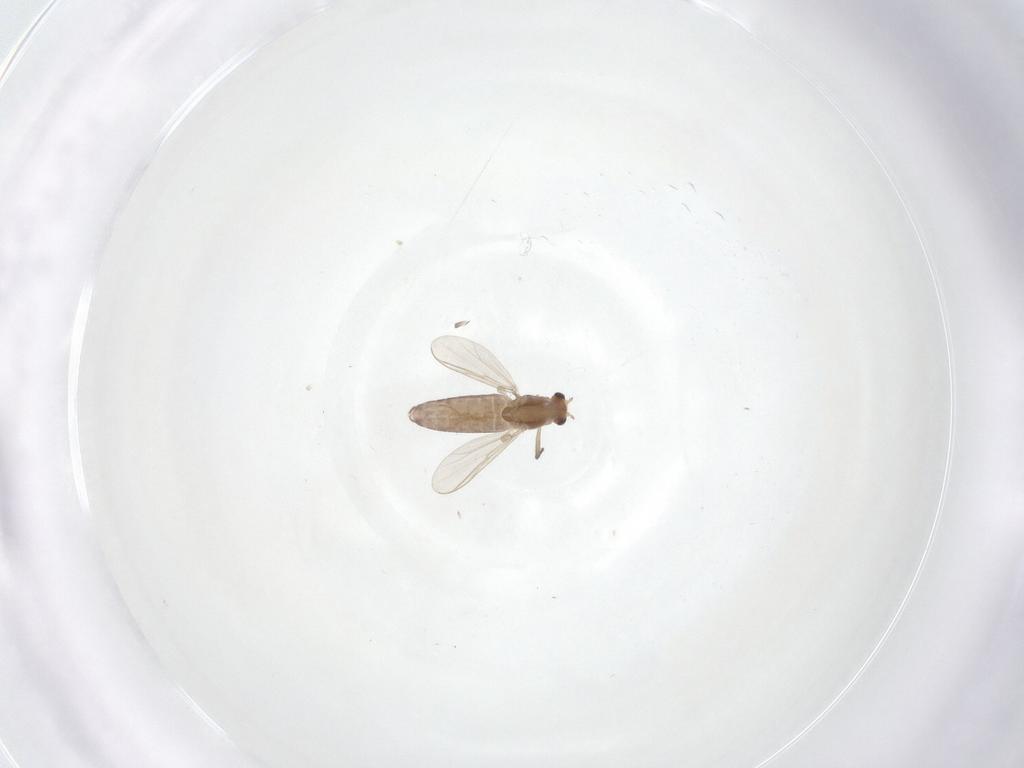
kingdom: Animalia
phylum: Arthropoda
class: Insecta
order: Diptera
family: Chironomidae
